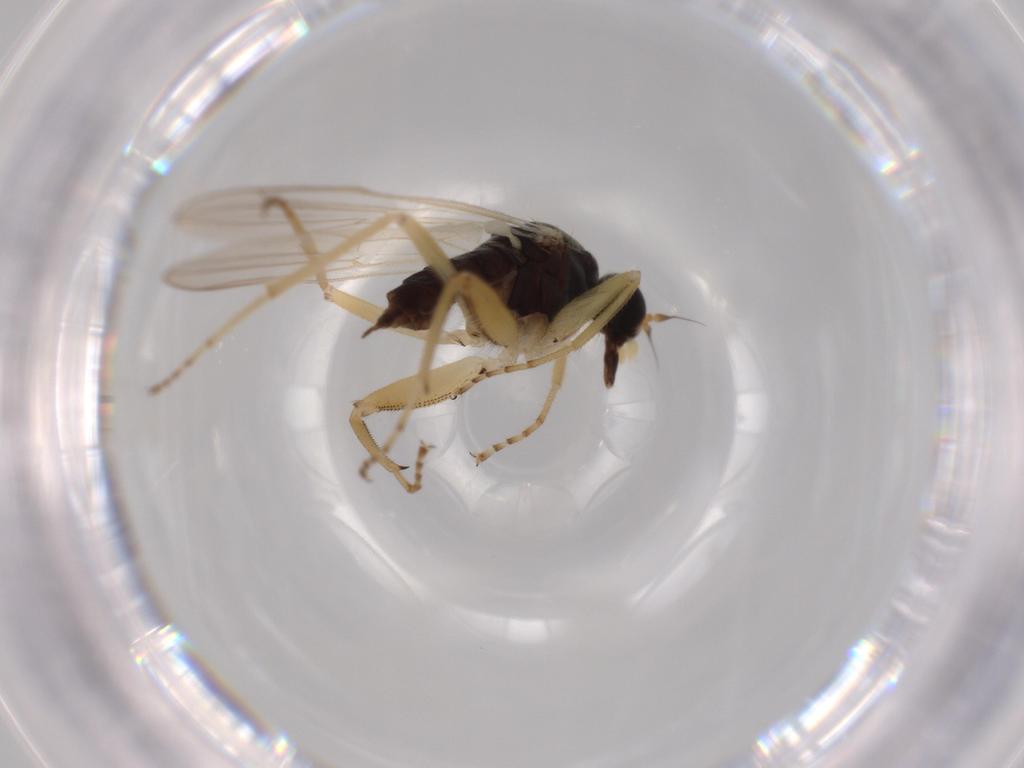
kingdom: Animalia
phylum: Arthropoda
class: Insecta
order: Diptera
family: Hybotidae
